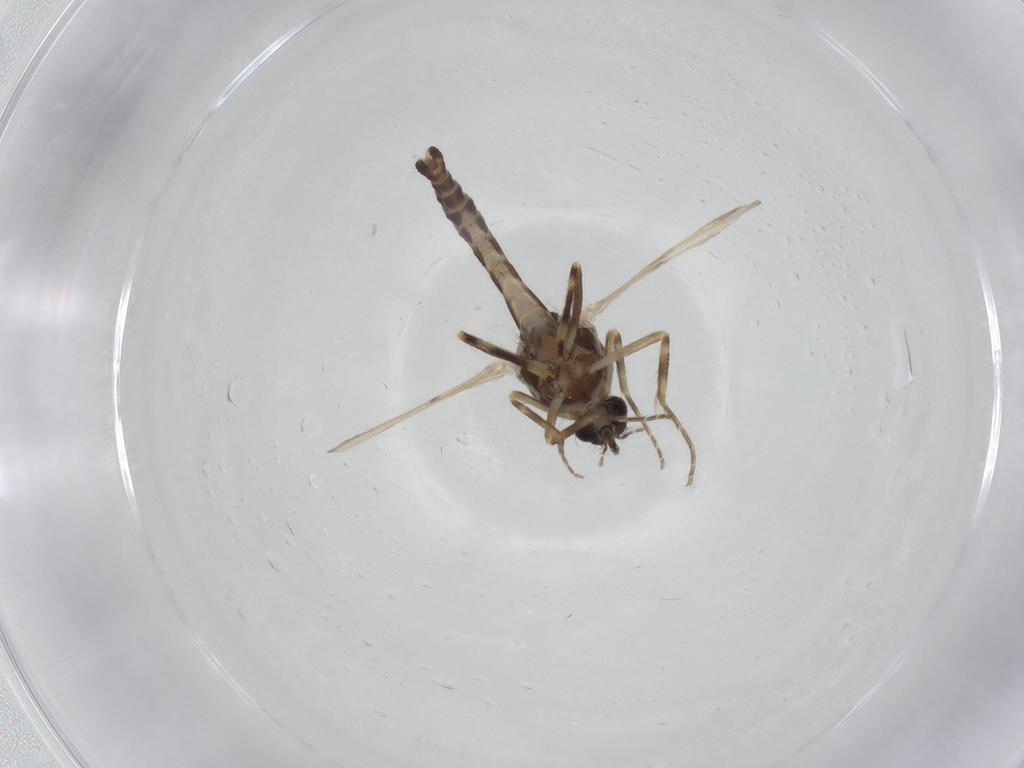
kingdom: Animalia
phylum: Arthropoda
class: Insecta
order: Diptera
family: Ceratopogonidae
